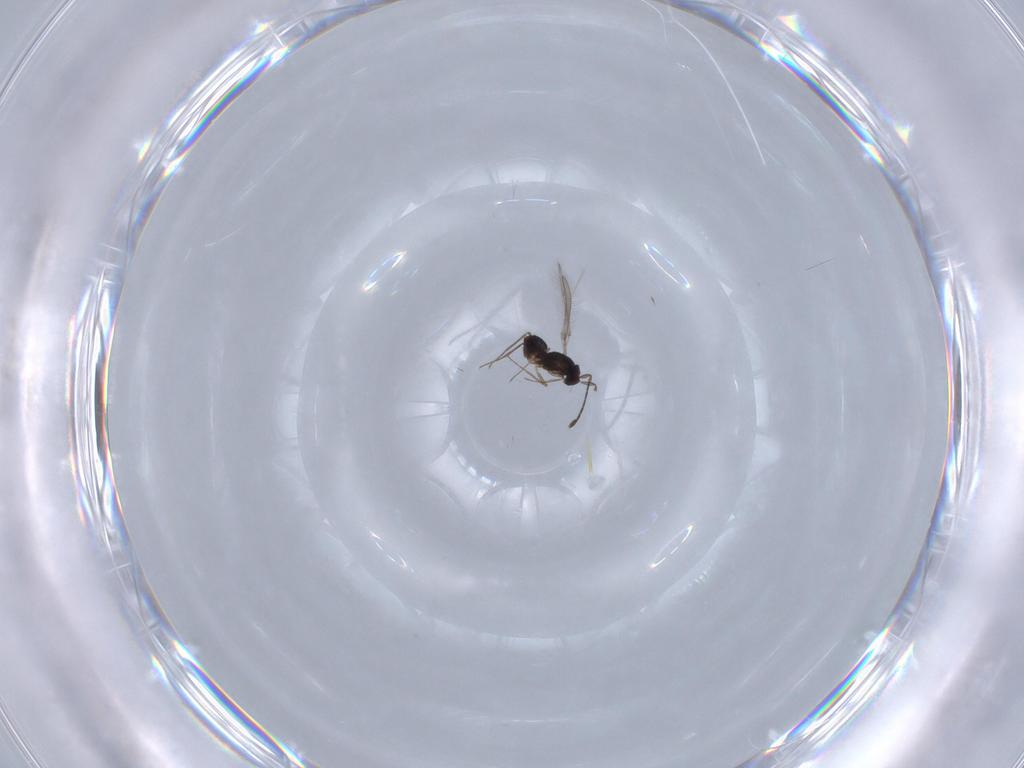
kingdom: Animalia
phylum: Arthropoda
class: Insecta
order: Hymenoptera
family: Mymaridae
